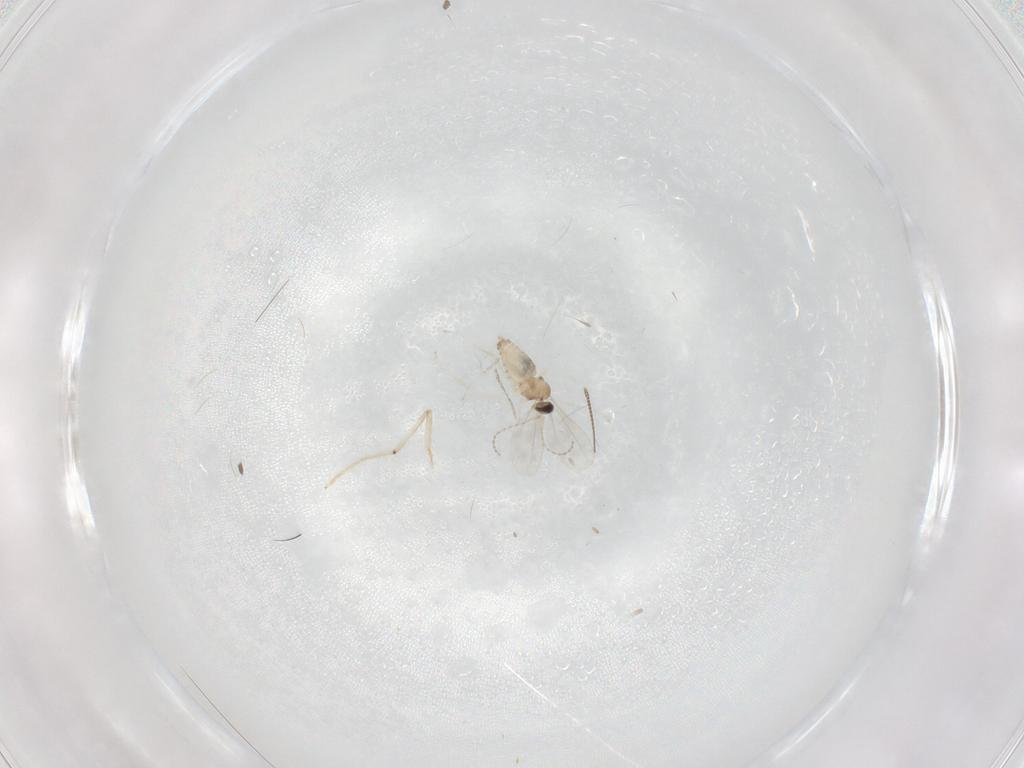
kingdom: Animalia
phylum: Arthropoda
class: Insecta
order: Diptera
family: Chironomidae
